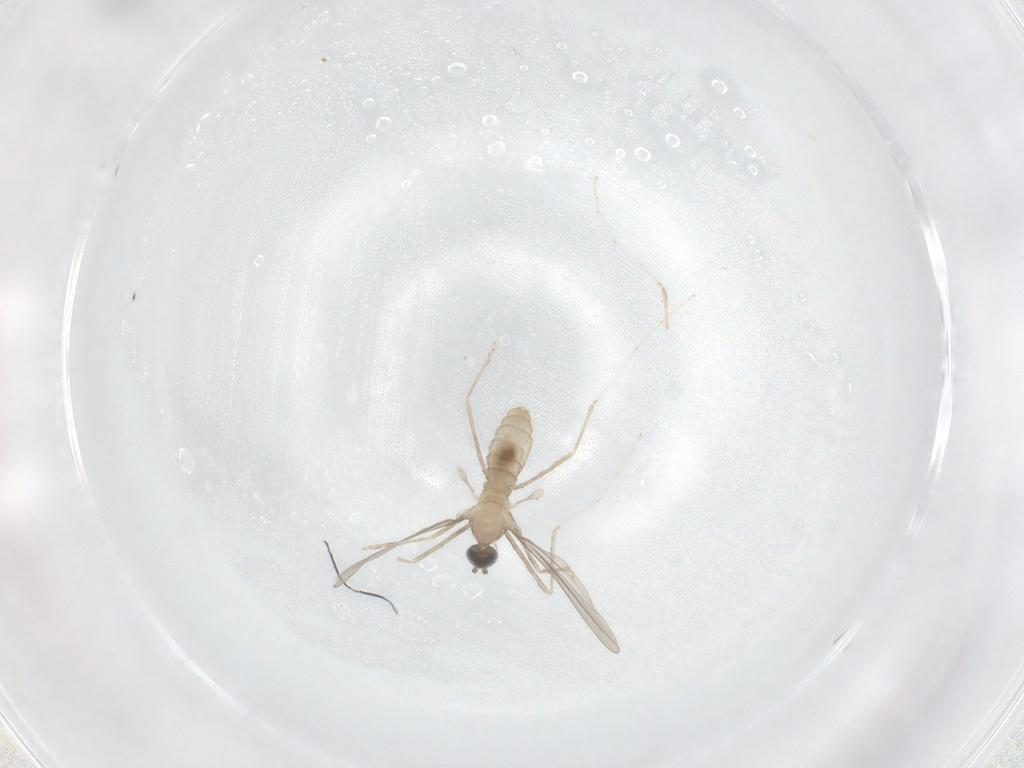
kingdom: Animalia
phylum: Arthropoda
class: Insecta
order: Diptera
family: Cecidomyiidae
